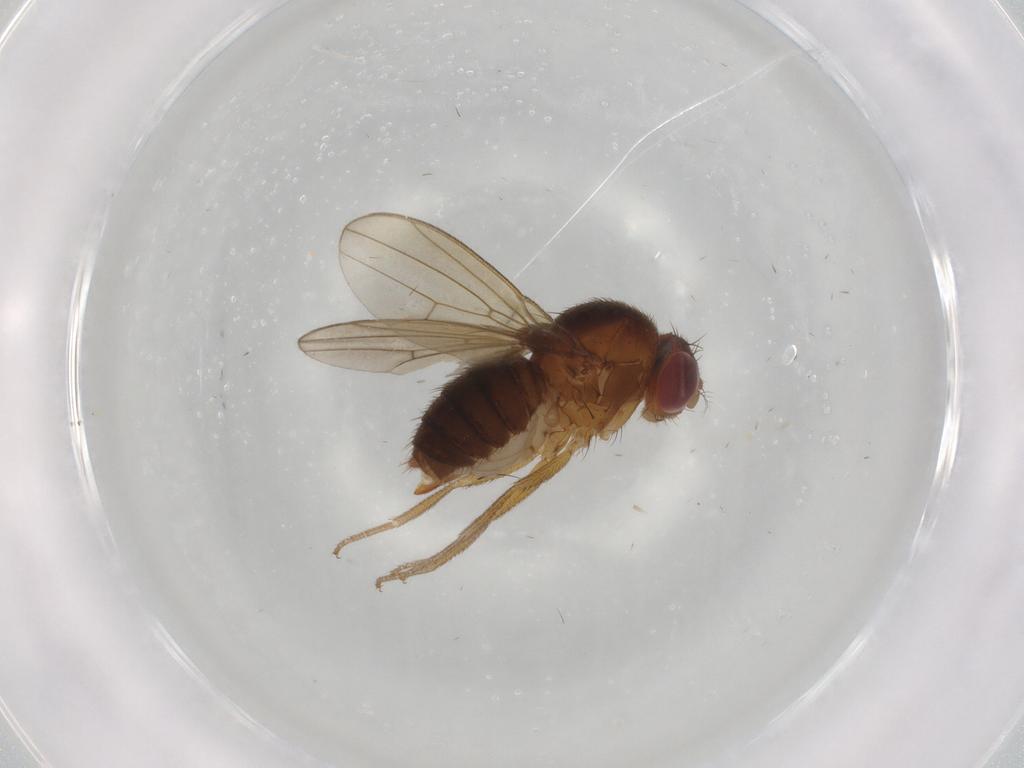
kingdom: Animalia
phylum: Arthropoda
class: Insecta
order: Diptera
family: Drosophilidae
